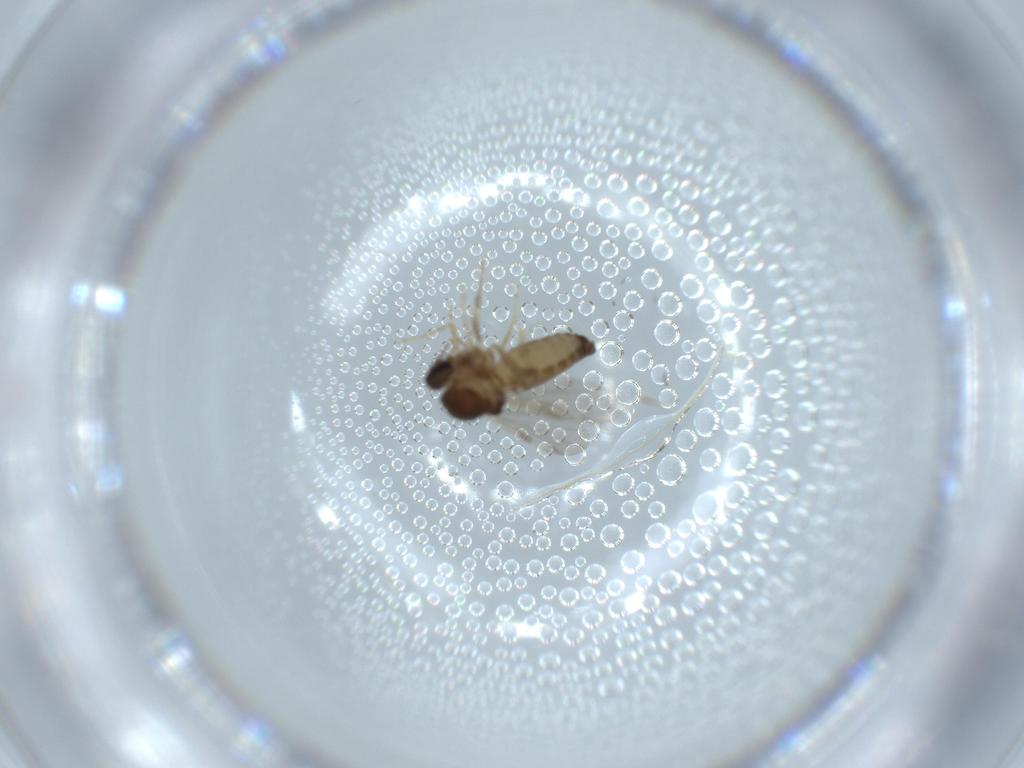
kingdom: Animalia
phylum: Arthropoda
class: Insecta
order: Diptera
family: Ceratopogonidae
